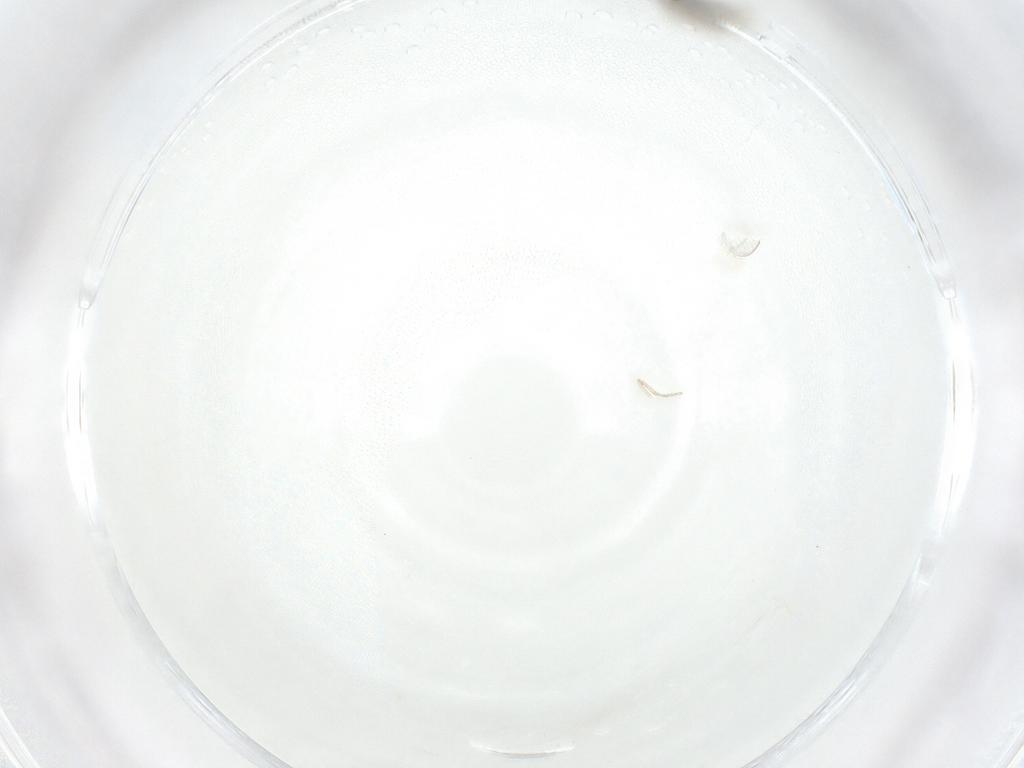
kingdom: Animalia
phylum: Arthropoda
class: Insecta
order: Diptera
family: Cecidomyiidae
